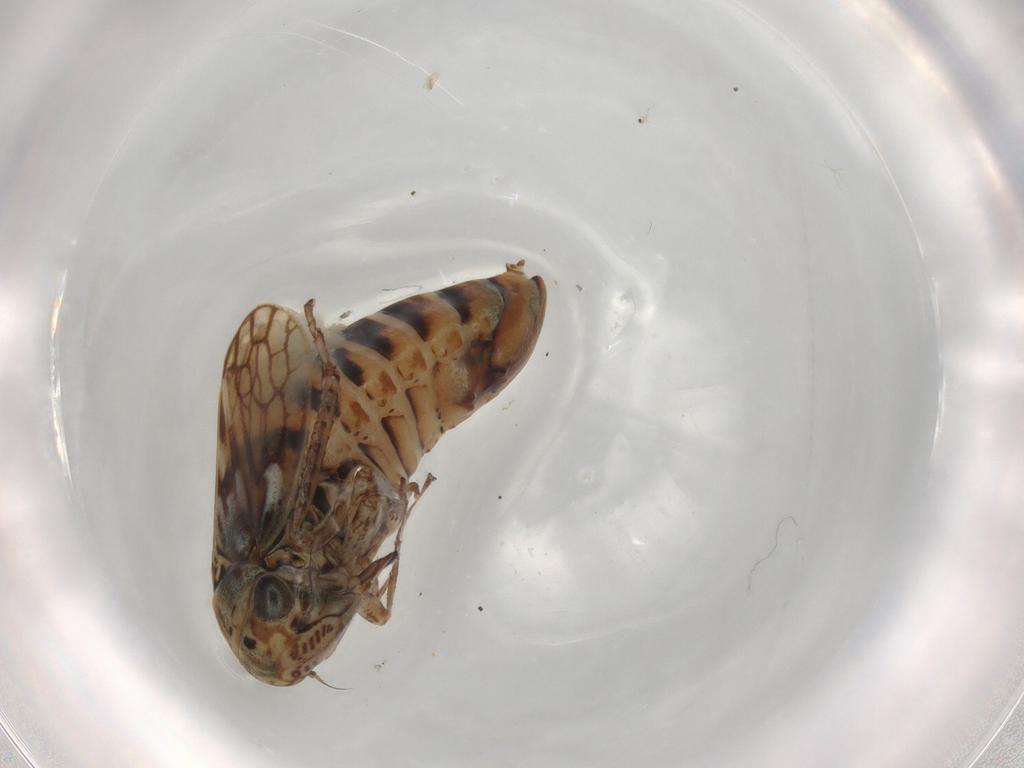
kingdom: Animalia
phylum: Arthropoda
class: Insecta
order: Hemiptera
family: Cicadellidae
